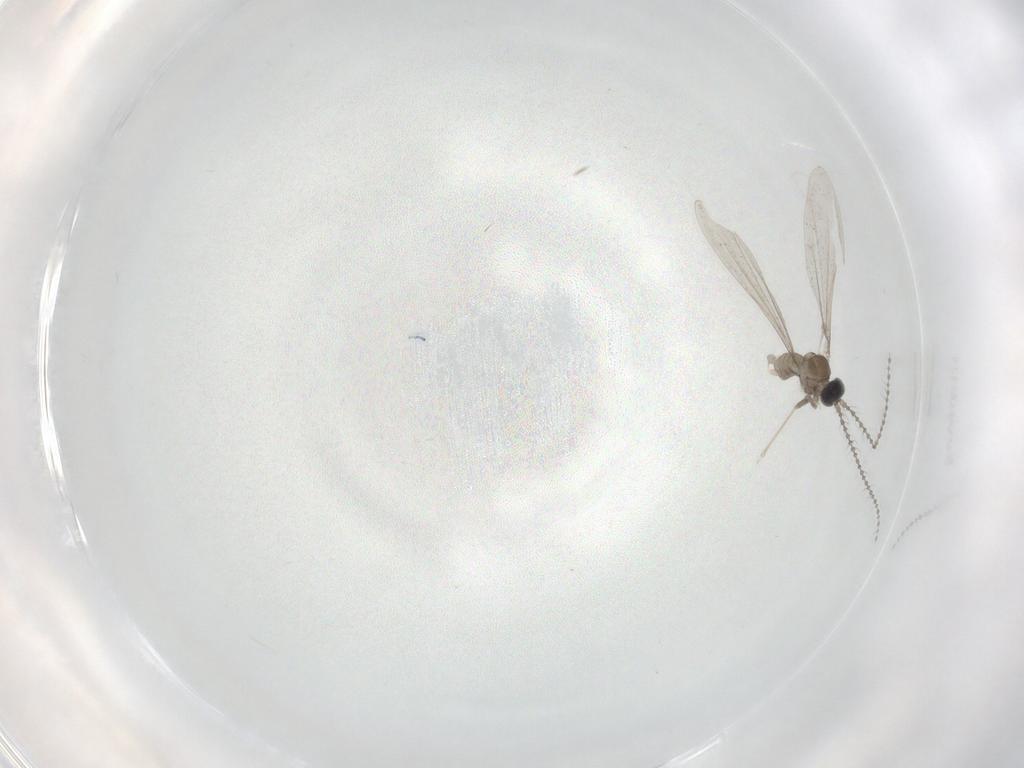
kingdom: Animalia
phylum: Arthropoda
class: Insecta
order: Diptera
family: Cecidomyiidae
